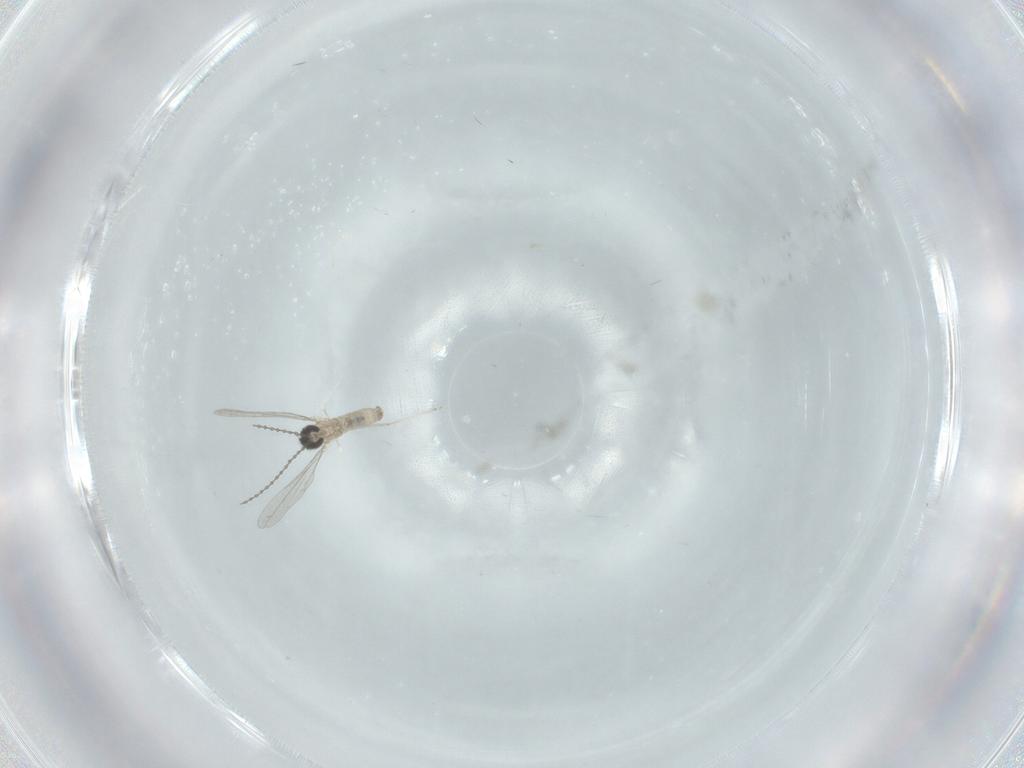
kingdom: Animalia
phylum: Arthropoda
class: Insecta
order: Diptera
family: Cecidomyiidae
